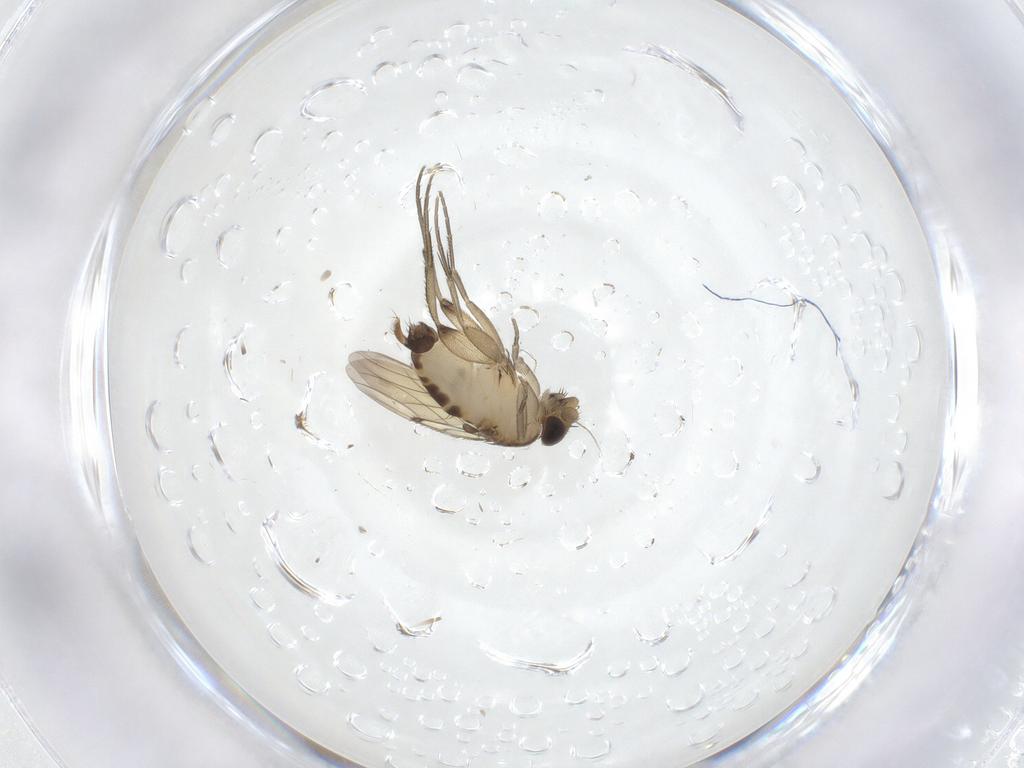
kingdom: Animalia
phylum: Arthropoda
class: Insecta
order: Diptera
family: Phoridae
